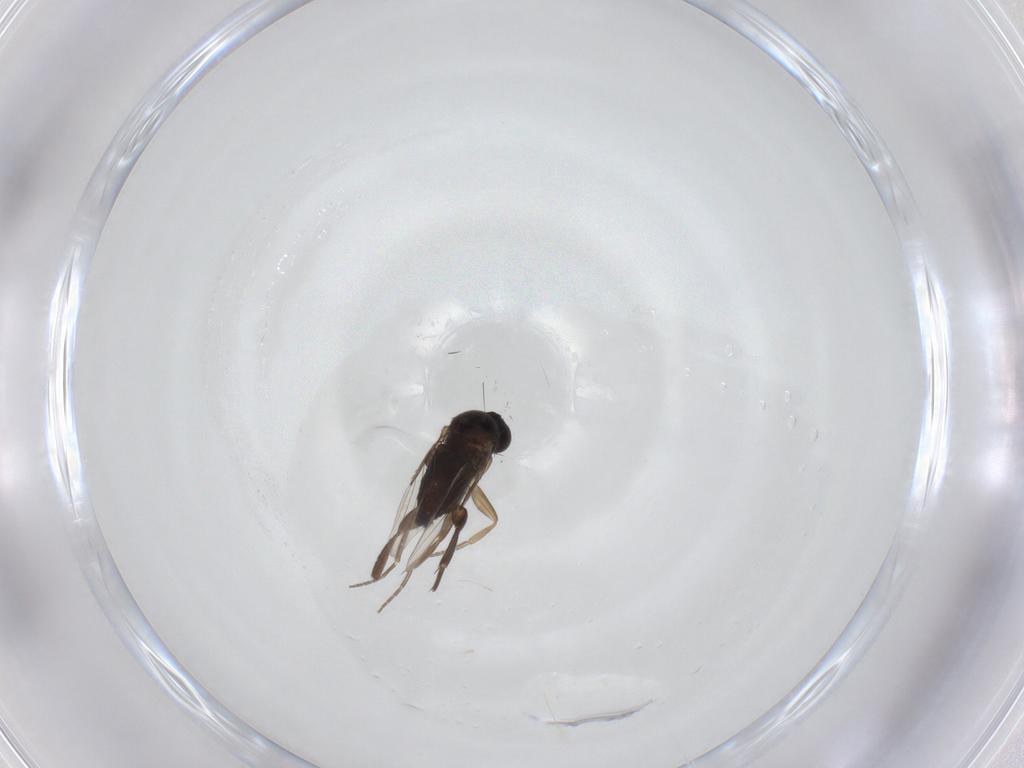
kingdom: Animalia
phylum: Arthropoda
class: Insecta
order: Diptera
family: Phoridae
